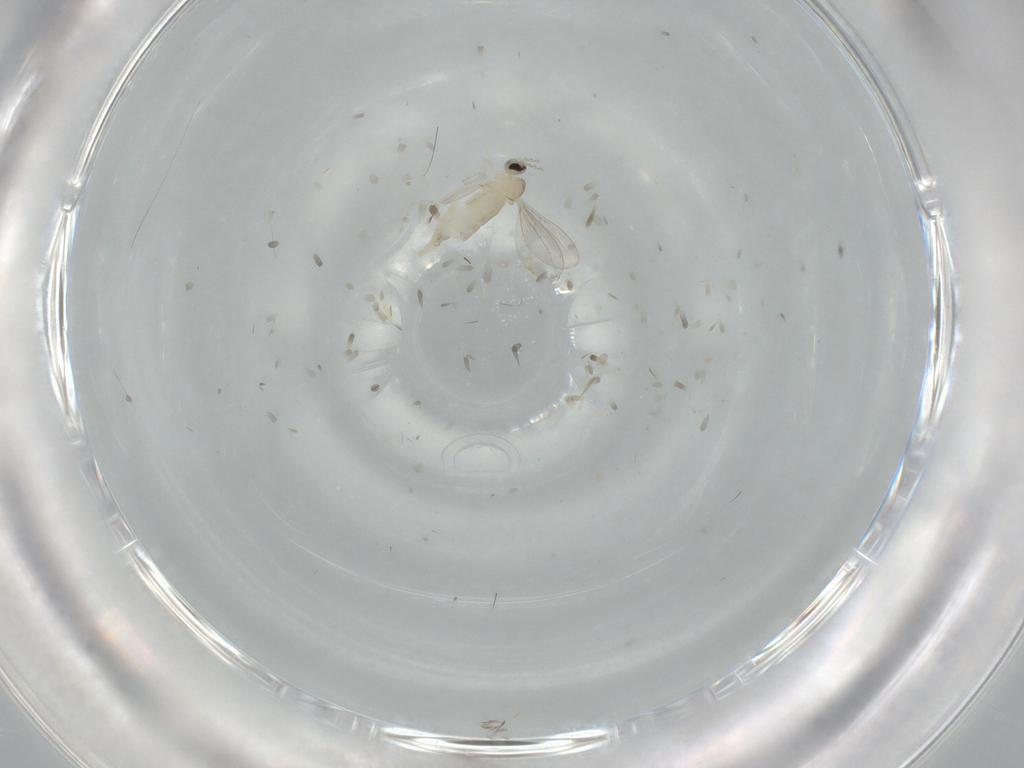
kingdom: Animalia
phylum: Arthropoda
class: Insecta
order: Diptera
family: Cecidomyiidae
